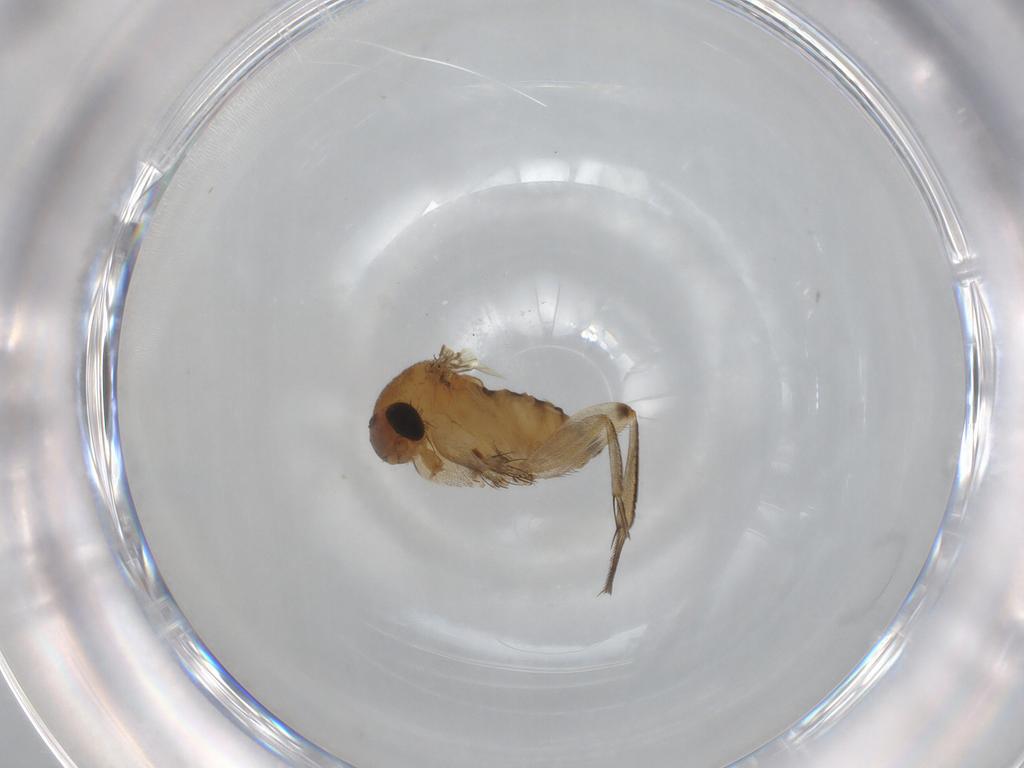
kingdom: Animalia
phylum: Arthropoda
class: Insecta
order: Diptera
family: Phoridae
